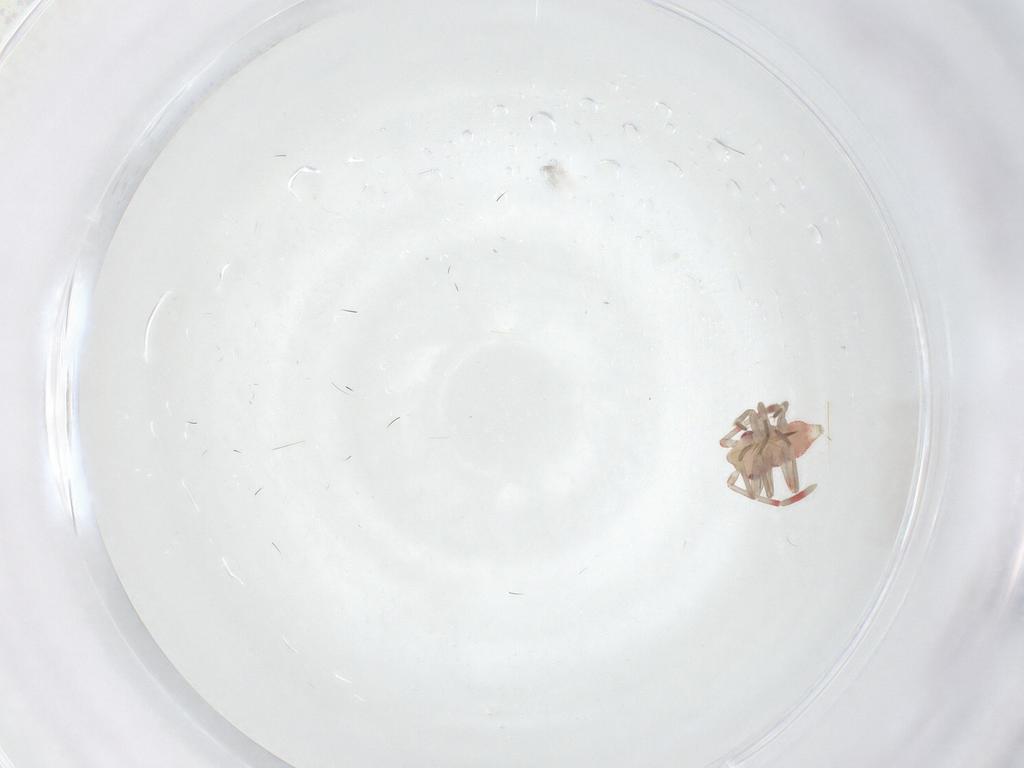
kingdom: Animalia
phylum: Arthropoda
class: Insecta
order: Hemiptera
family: Miridae
